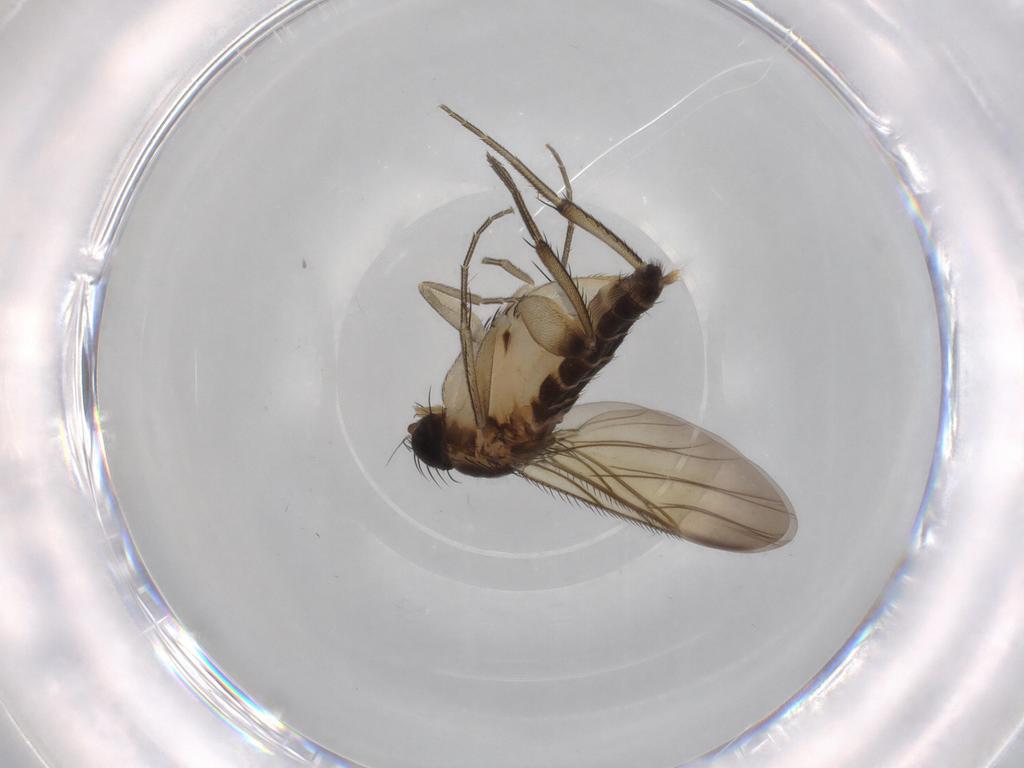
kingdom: Animalia
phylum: Arthropoda
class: Insecta
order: Diptera
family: Phoridae
